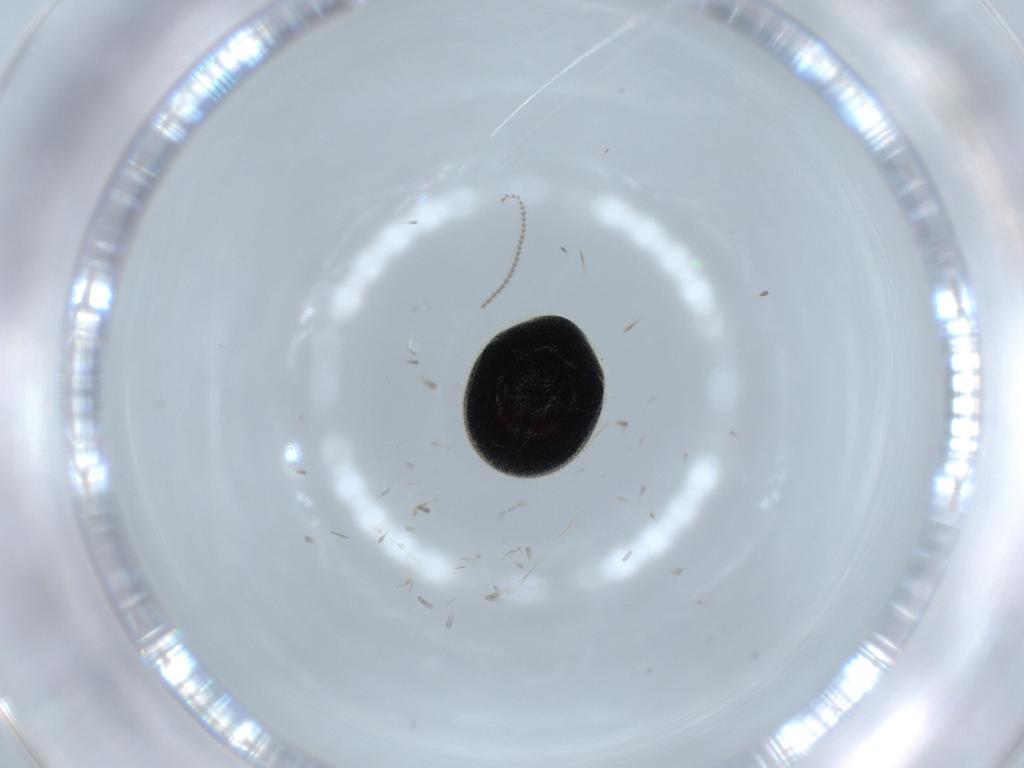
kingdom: Animalia
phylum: Arthropoda
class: Insecta
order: Coleoptera
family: Ptinidae
